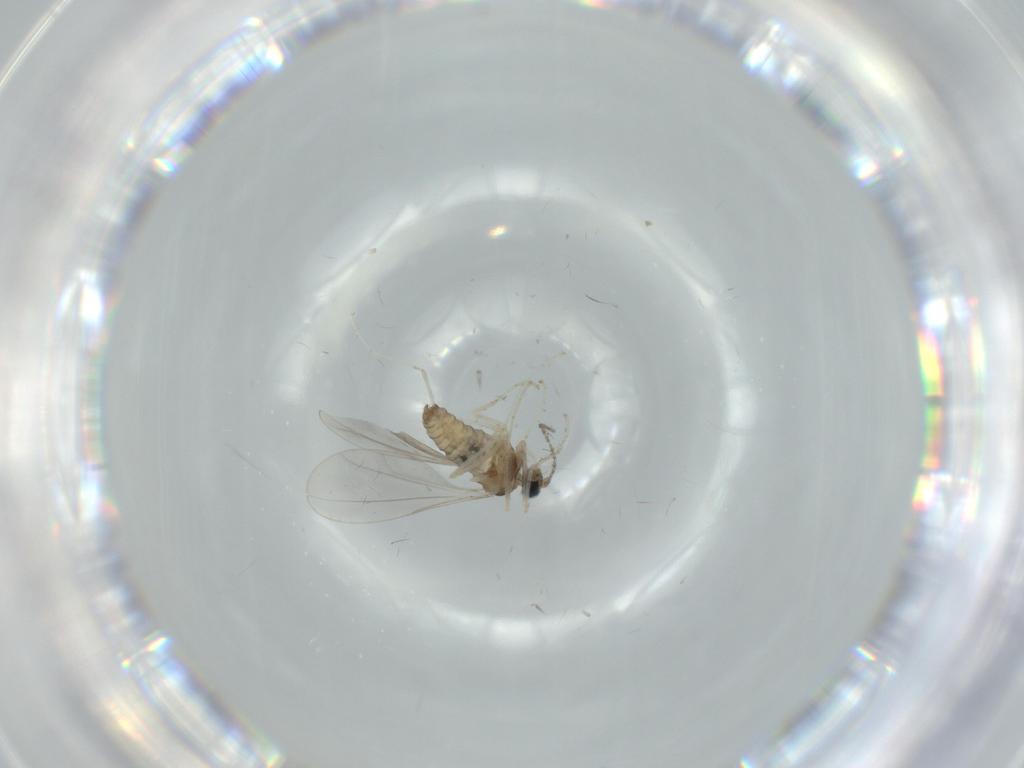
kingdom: Animalia
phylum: Arthropoda
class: Insecta
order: Diptera
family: Cecidomyiidae
